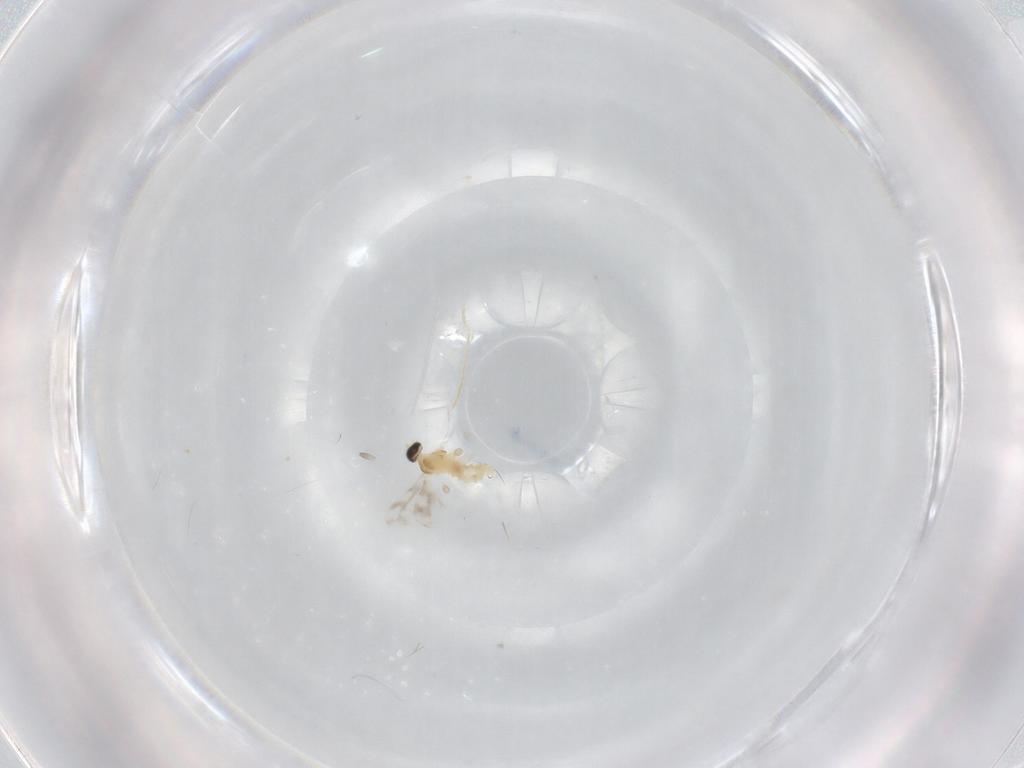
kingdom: Animalia
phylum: Arthropoda
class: Insecta
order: Diptera
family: Cecidomyiidae
